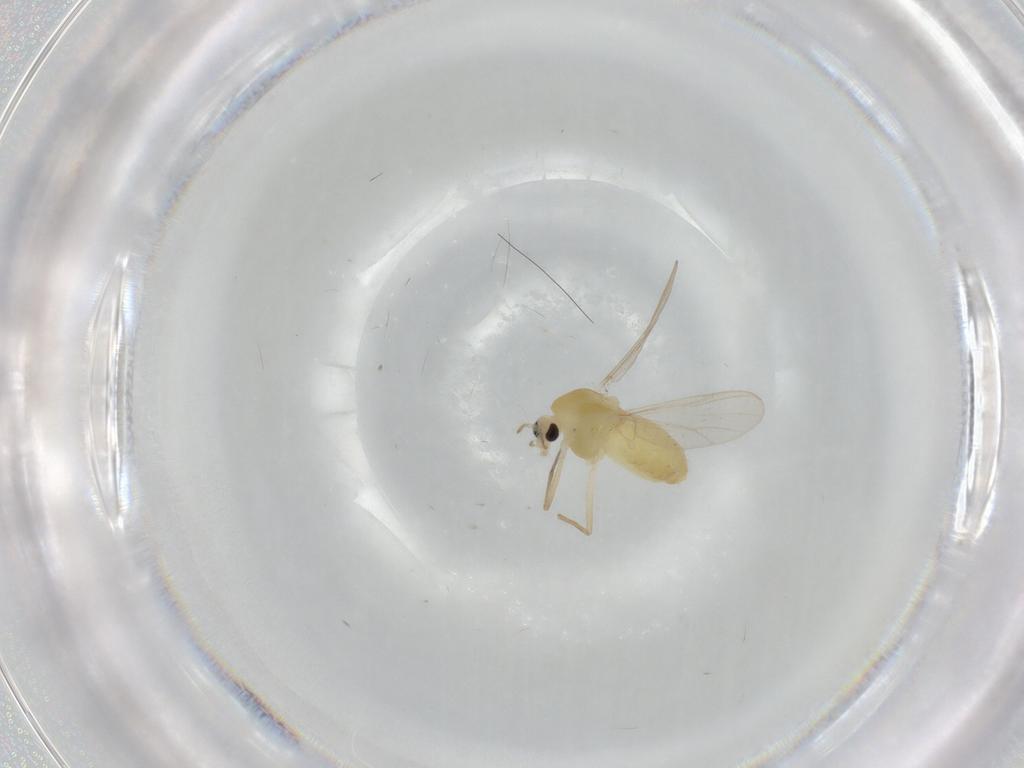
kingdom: Animalia
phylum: Arthropoda
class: Insecta
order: Diptera
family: Chironomidae
